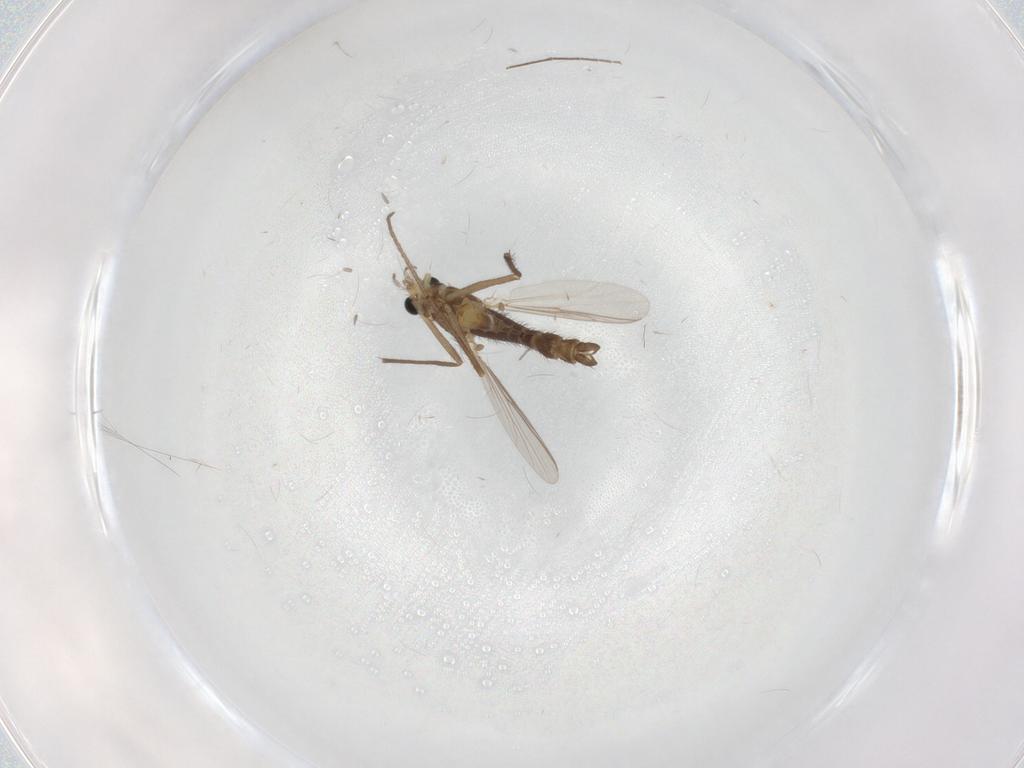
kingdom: Animalia
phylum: Arthropoda
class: Insecta
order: Diptera
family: Chironomidae
